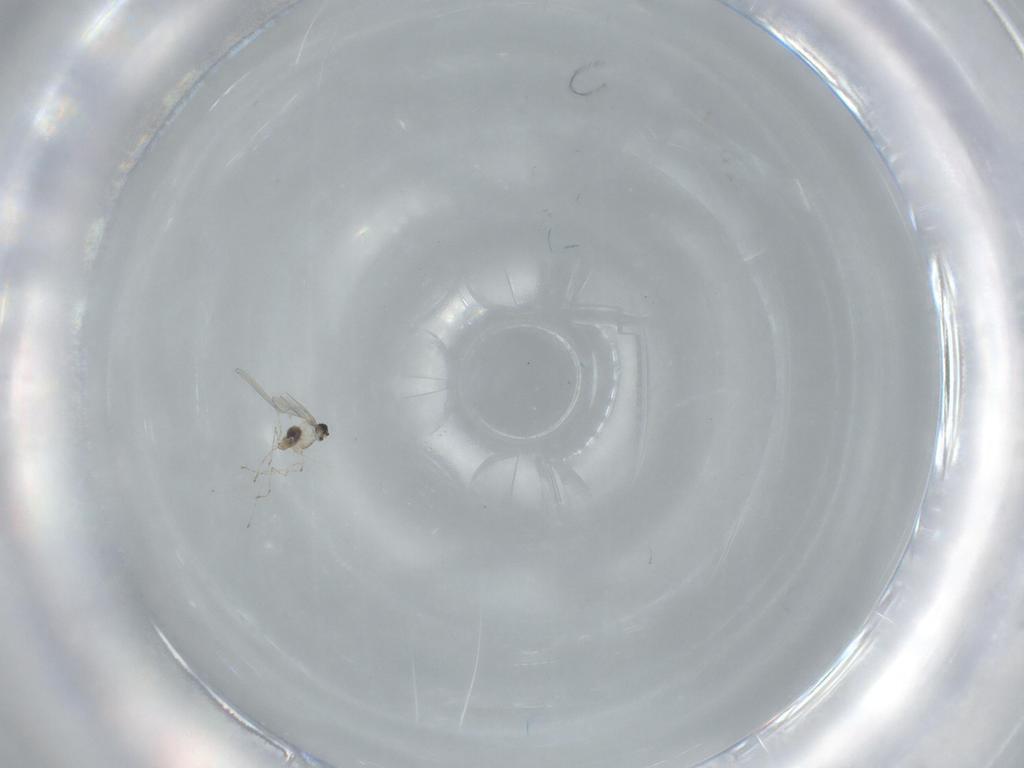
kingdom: Animalia
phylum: Arthropoda
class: Insecta
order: Diptera
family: Cecidomyiidae
